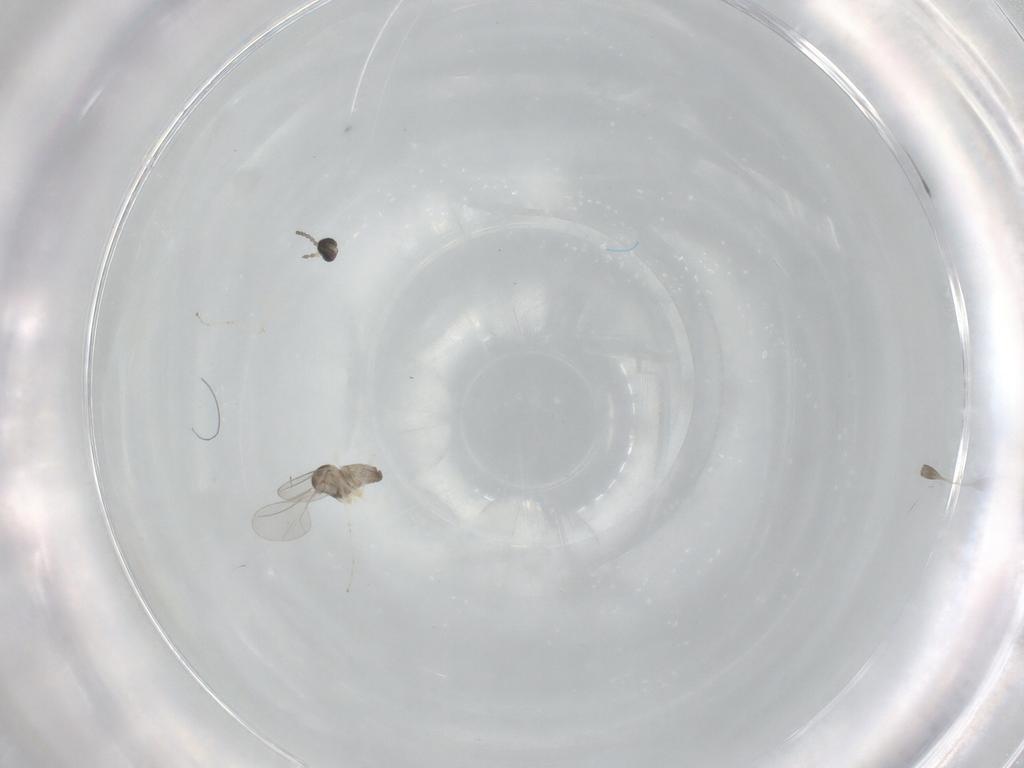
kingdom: Animalia
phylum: Arthropoda
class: Insecta
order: Diptera
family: Cecidomyiidae
